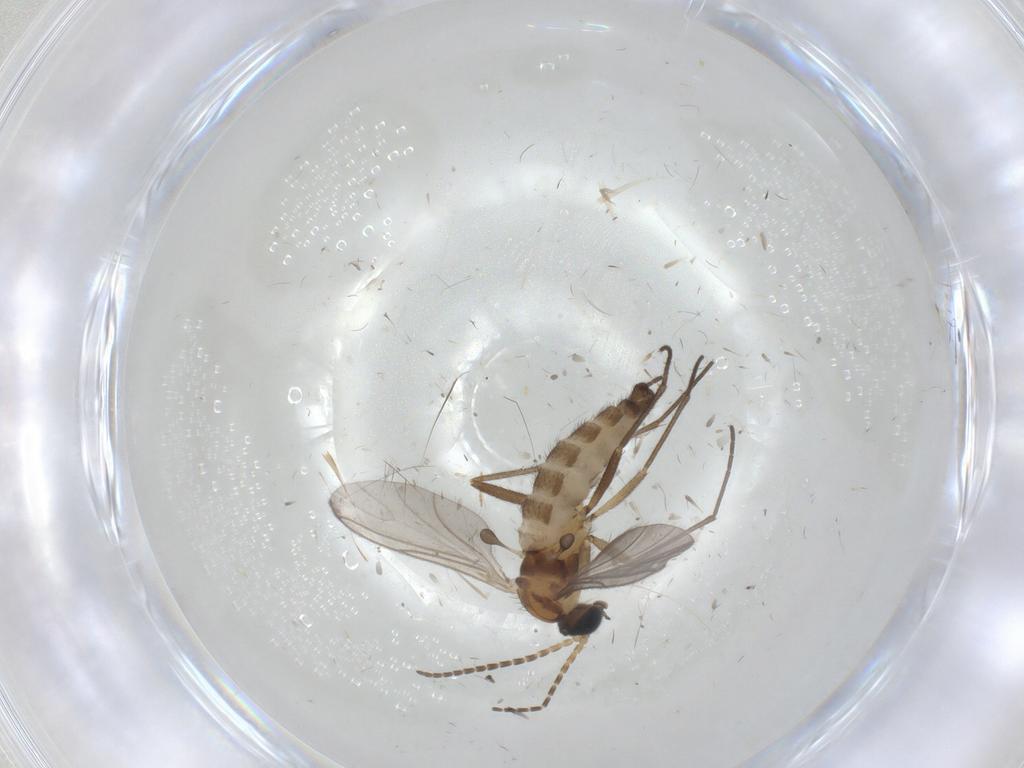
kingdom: Animalia
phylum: Arthropoda
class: Insecta
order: Diptera
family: Sciaridae
